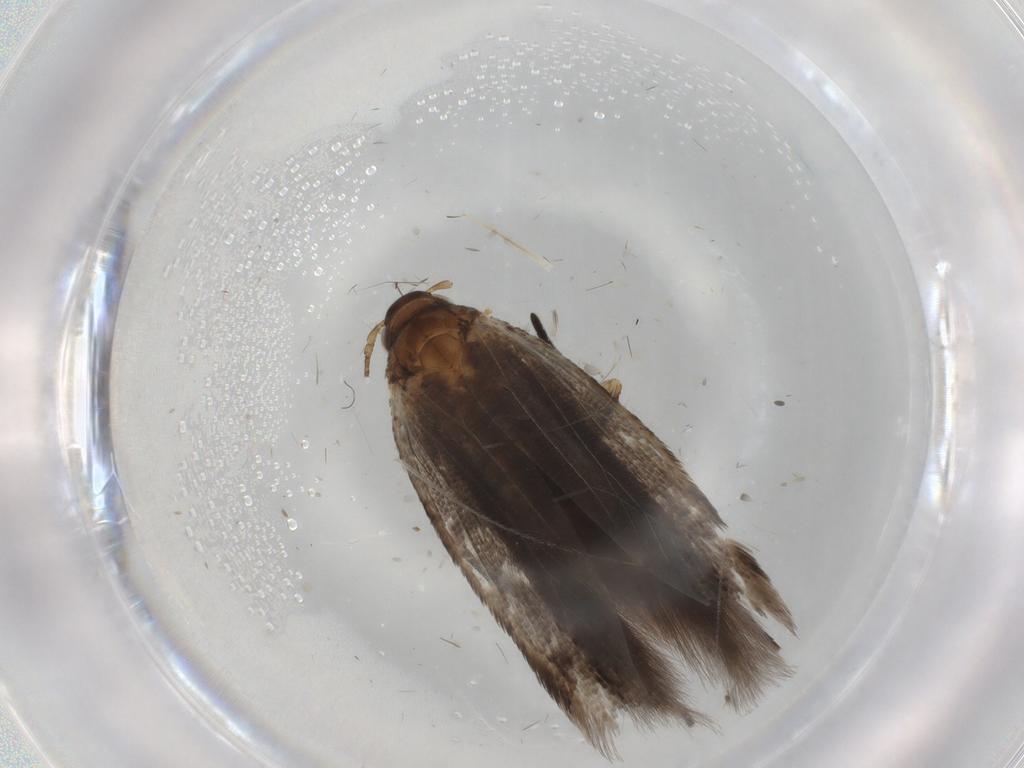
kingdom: Animalia
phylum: Arthropoda
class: Insecta
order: Lepidoptera
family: Gelechiidae
